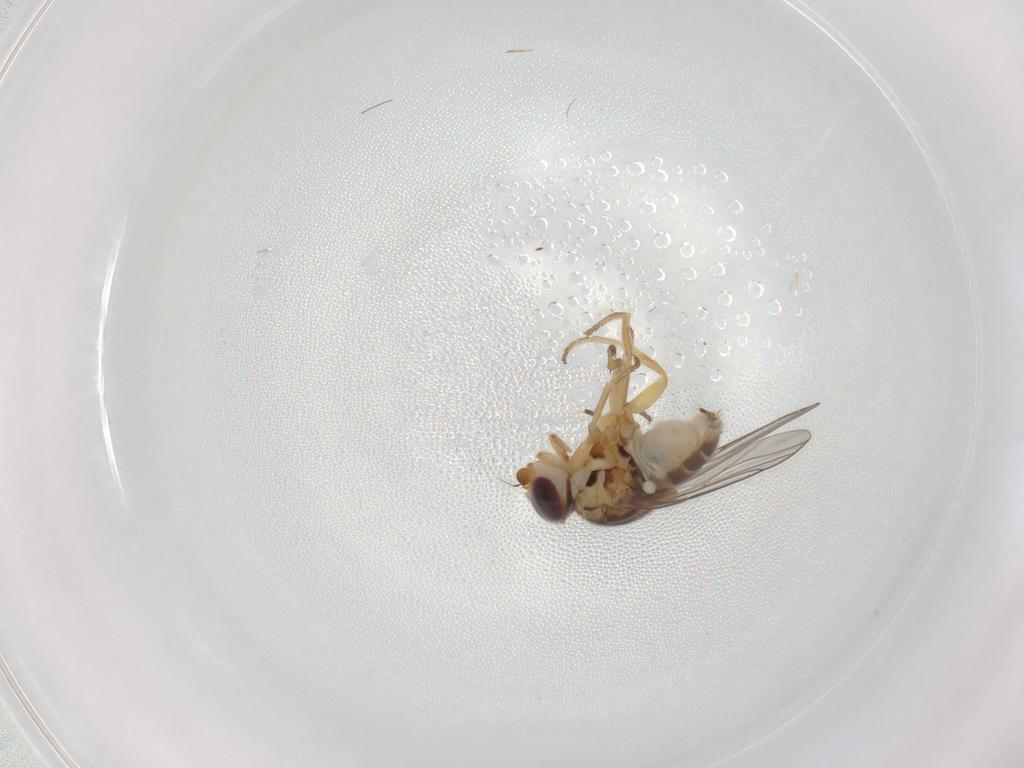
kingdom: Animalia
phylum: Arthropoda
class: Insecta
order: Diptera
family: Chloropidae
